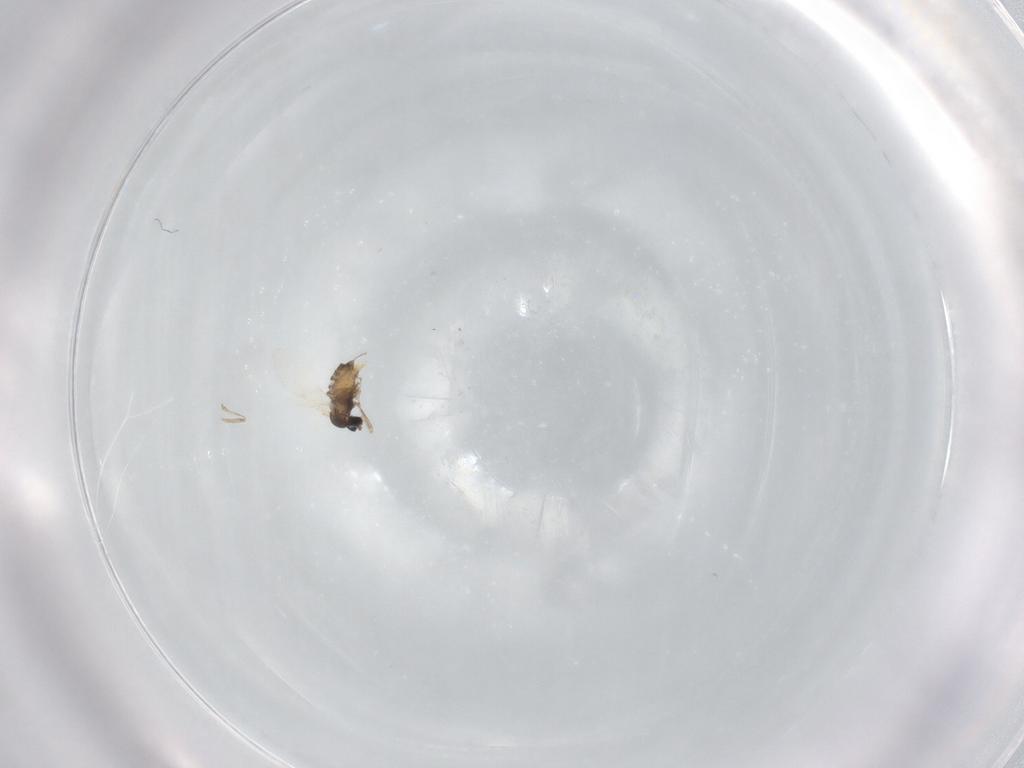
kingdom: Animalia
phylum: Arthropoda
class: Insecta
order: Diptera
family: Cecidomyiidae
